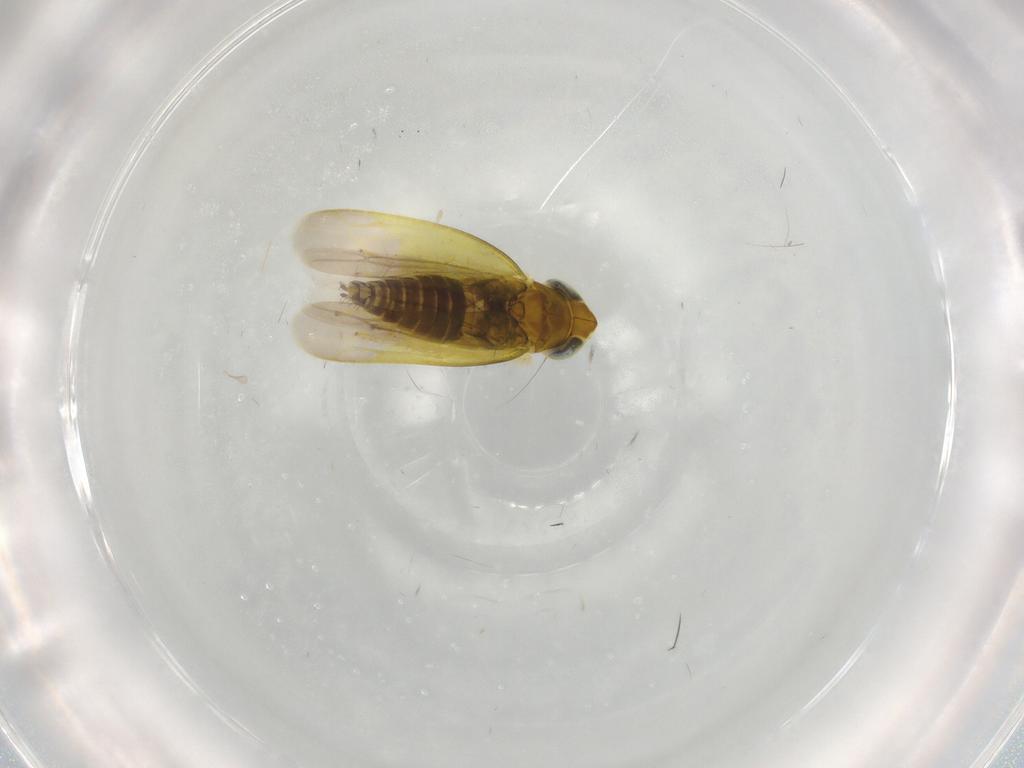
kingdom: Animalia
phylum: Arthropoda
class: Insecta
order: Hemiptera
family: Cicadellidae
